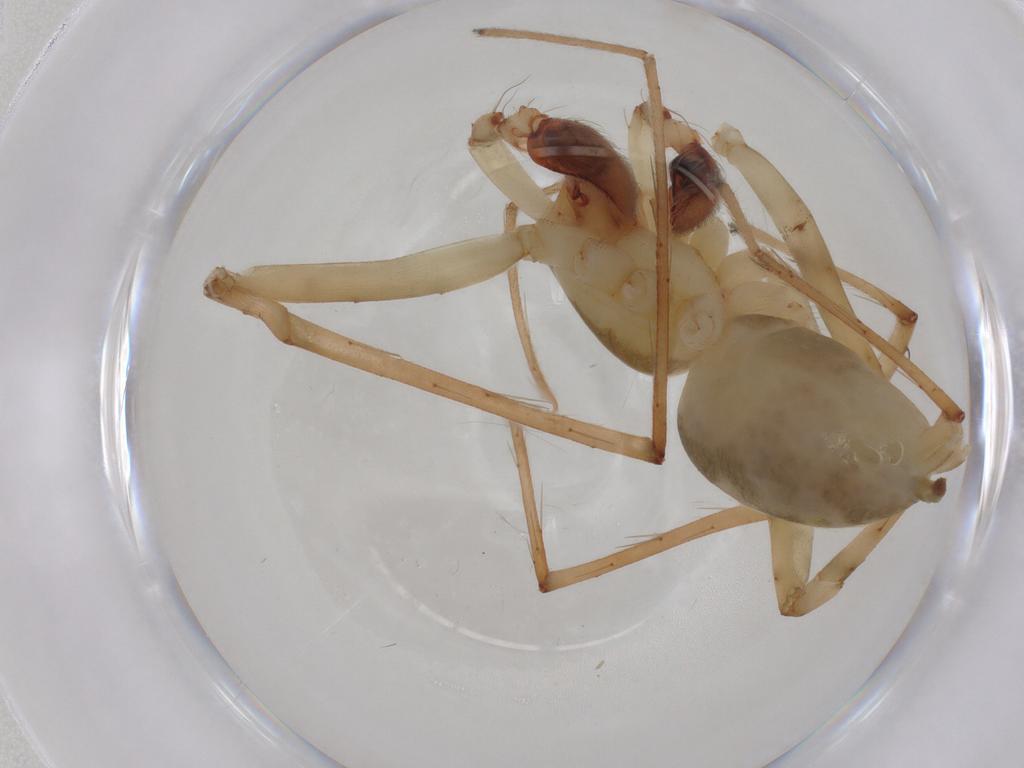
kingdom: Animalia
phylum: Arthropoda
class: Arachnida
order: Araneae
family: Anyphaenidae
